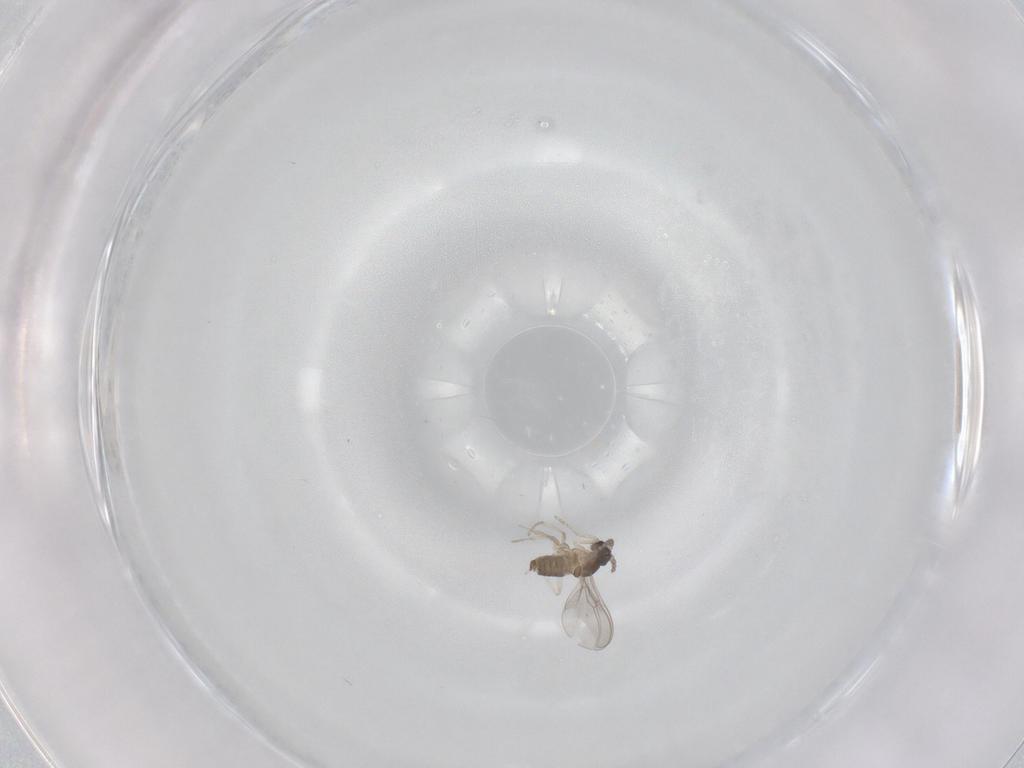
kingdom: Animalia
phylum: Arthropoda
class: Insecta
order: Diptera
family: Cecidomyiidae
